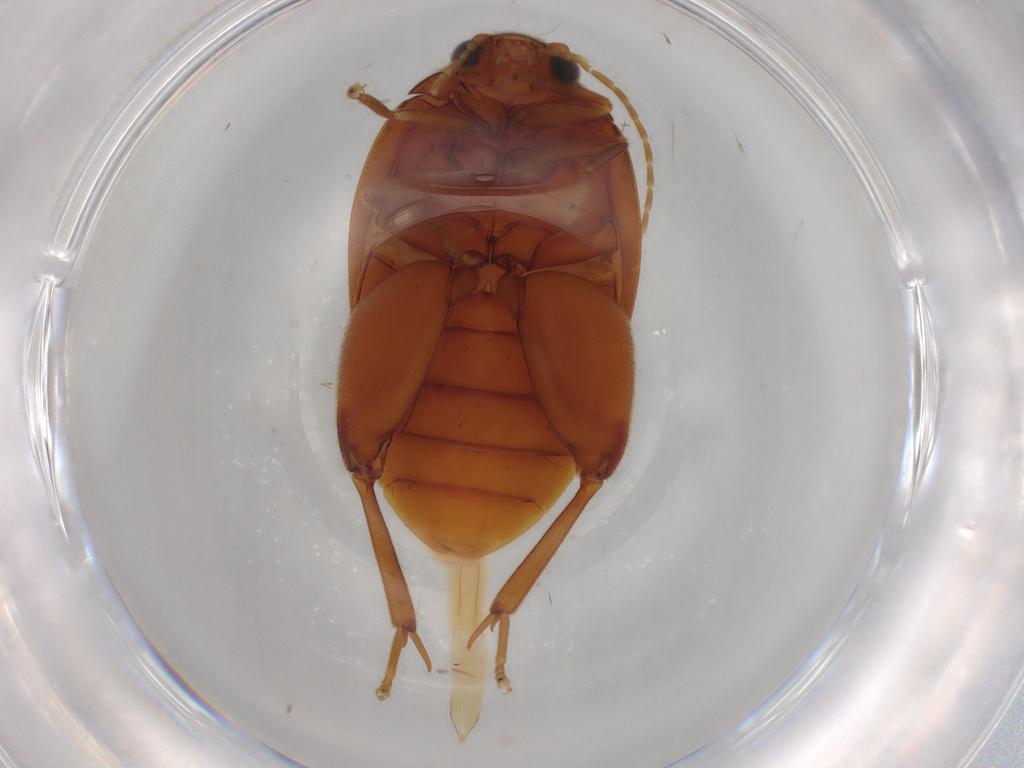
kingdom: Animalia
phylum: Arthropoda
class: Insecta
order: Coleoptera
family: Scirtidae
